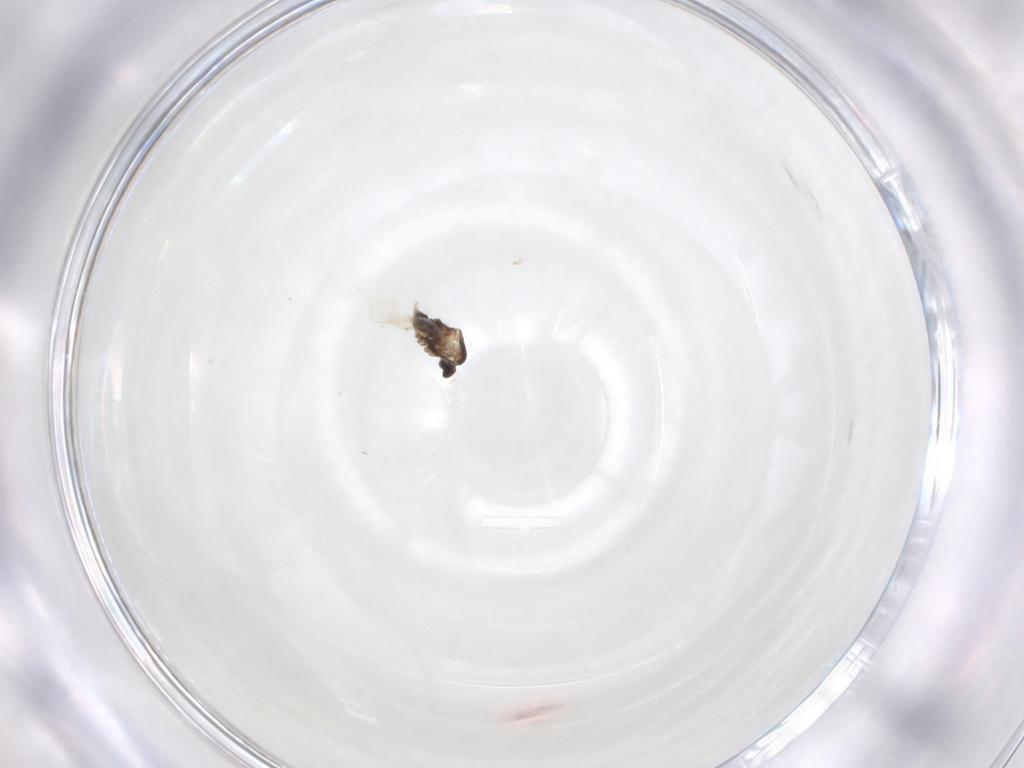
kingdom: Animalia
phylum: Arthropoda
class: Insecta
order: Diptera
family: Cecidomyiidae
